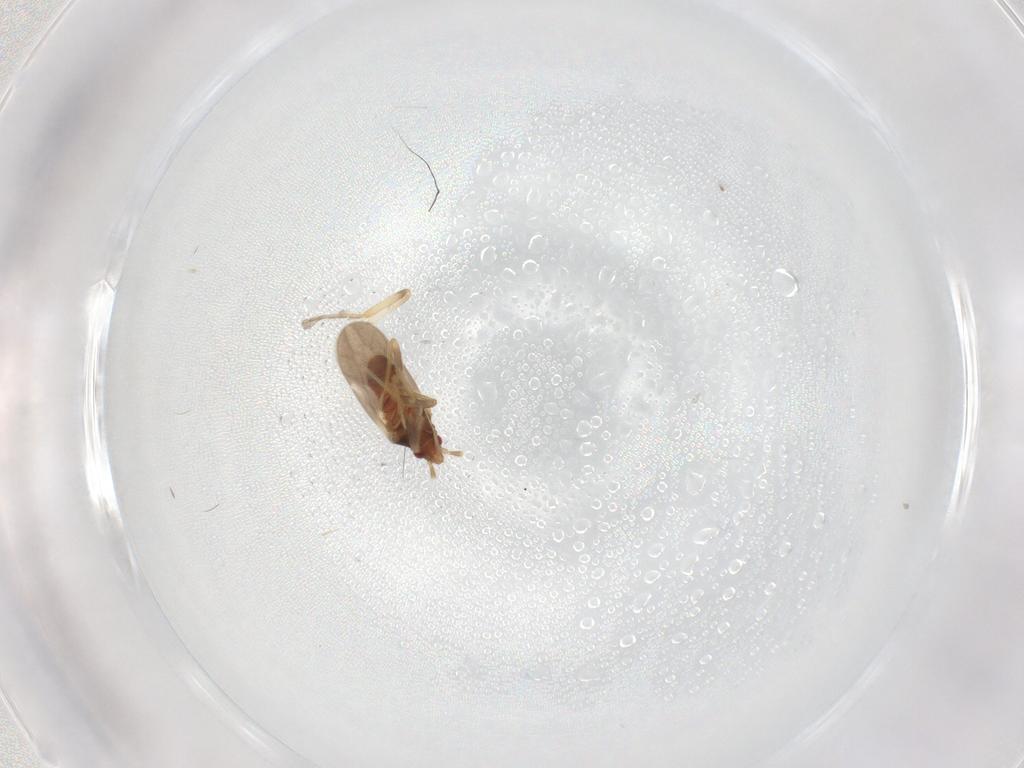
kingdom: Animalia
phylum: Arthropoda
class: Insecta
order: Hemiptera
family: Ceratocombidae
